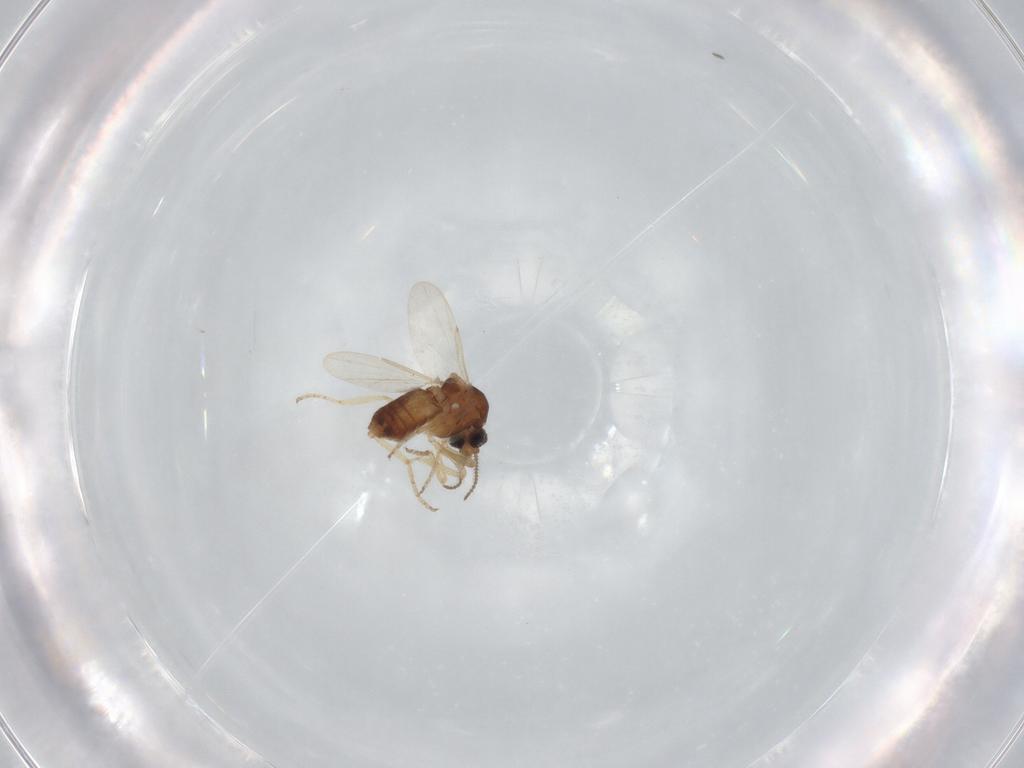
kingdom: Animalia
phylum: Arthropoda
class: Insecta
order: Diptera
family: Ceratopogonidae
